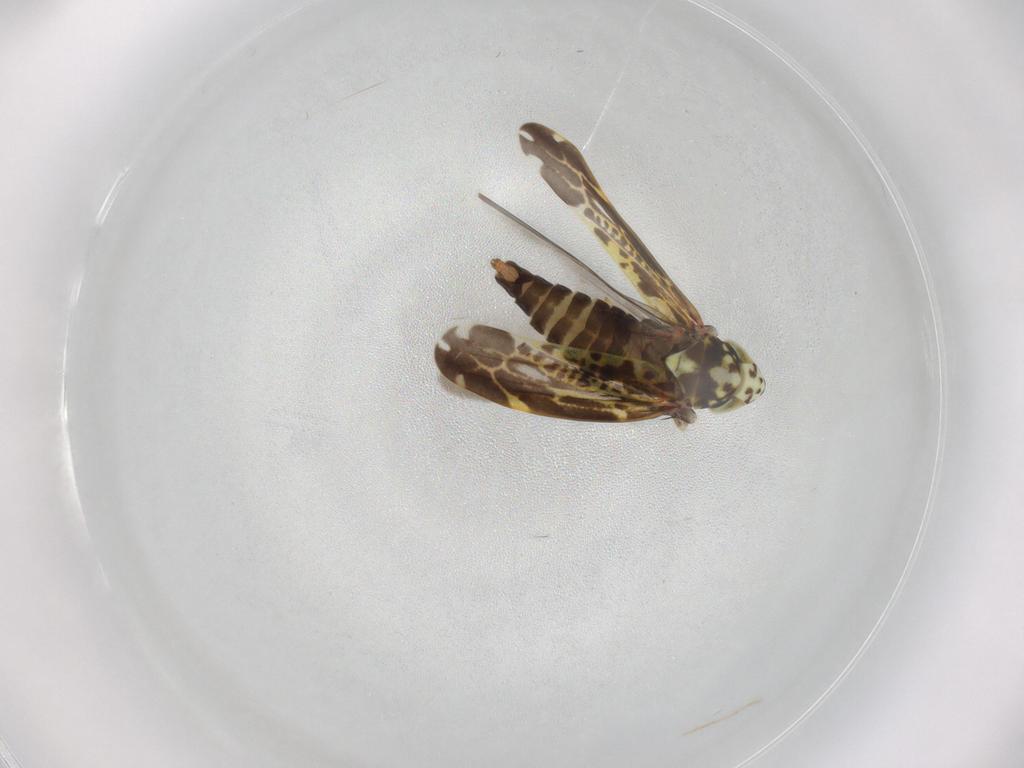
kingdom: Animalia
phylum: Arthropoda
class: Insecta
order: Hemiptera
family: Cicadellidae
